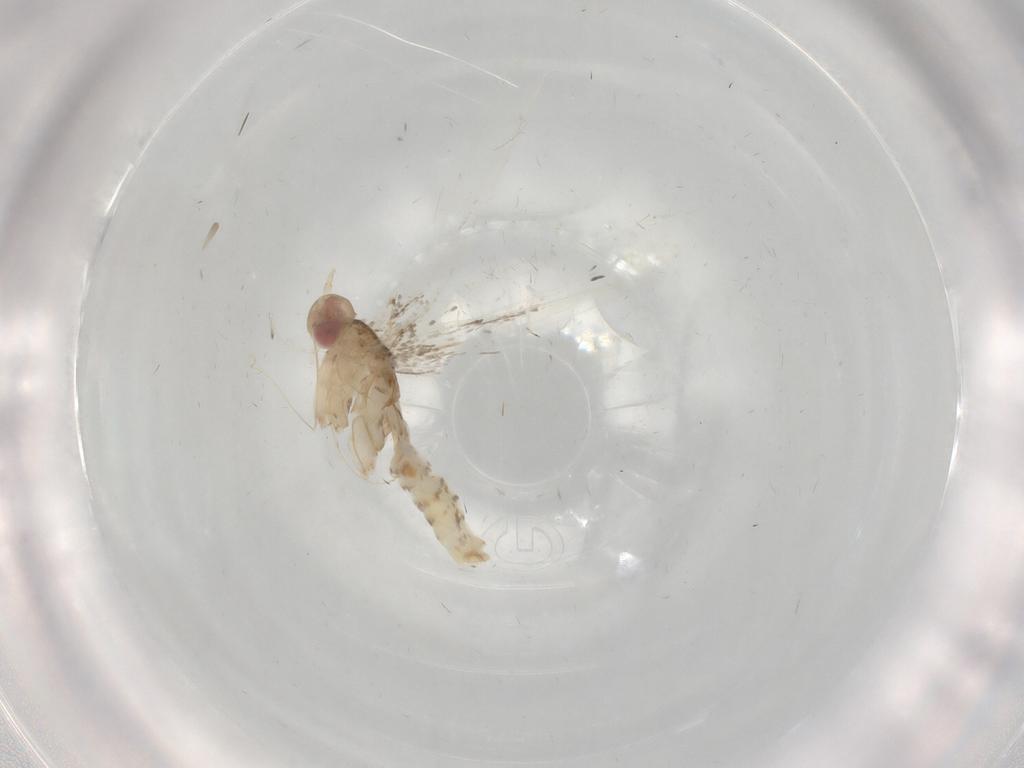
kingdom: Animalia
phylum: Arthropoda
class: Insecta
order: Lepidoptera
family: Gracillariidae
